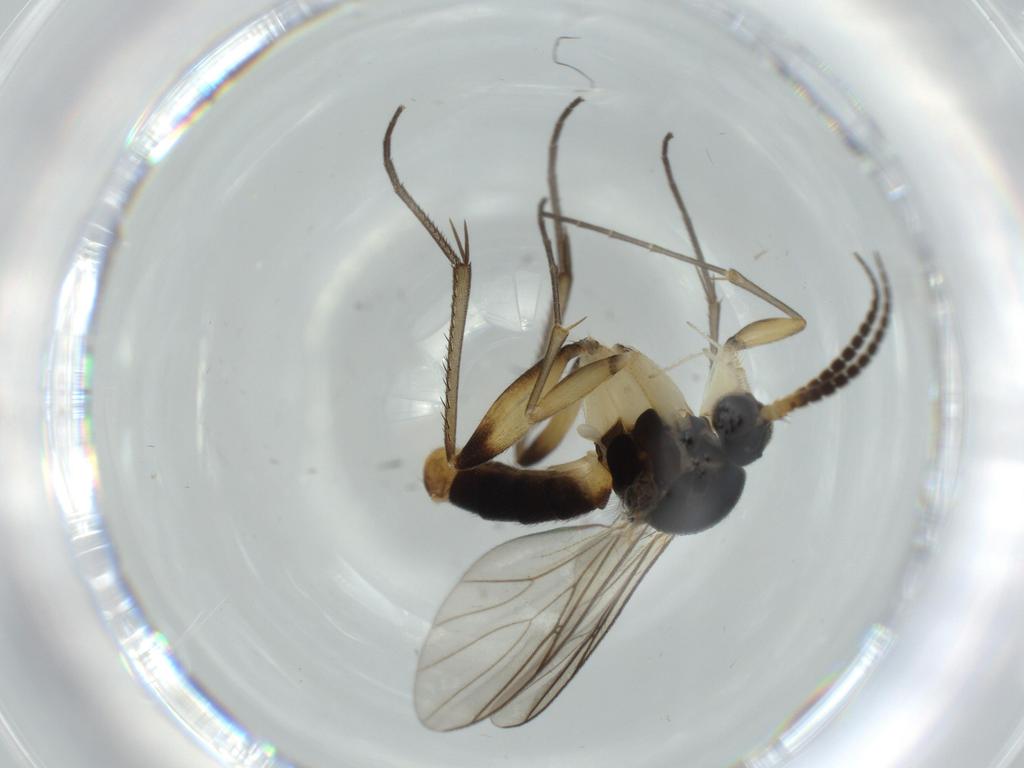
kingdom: Animalia
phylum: Arthropoda
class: Insecta
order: Diptera
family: Sciaridae
